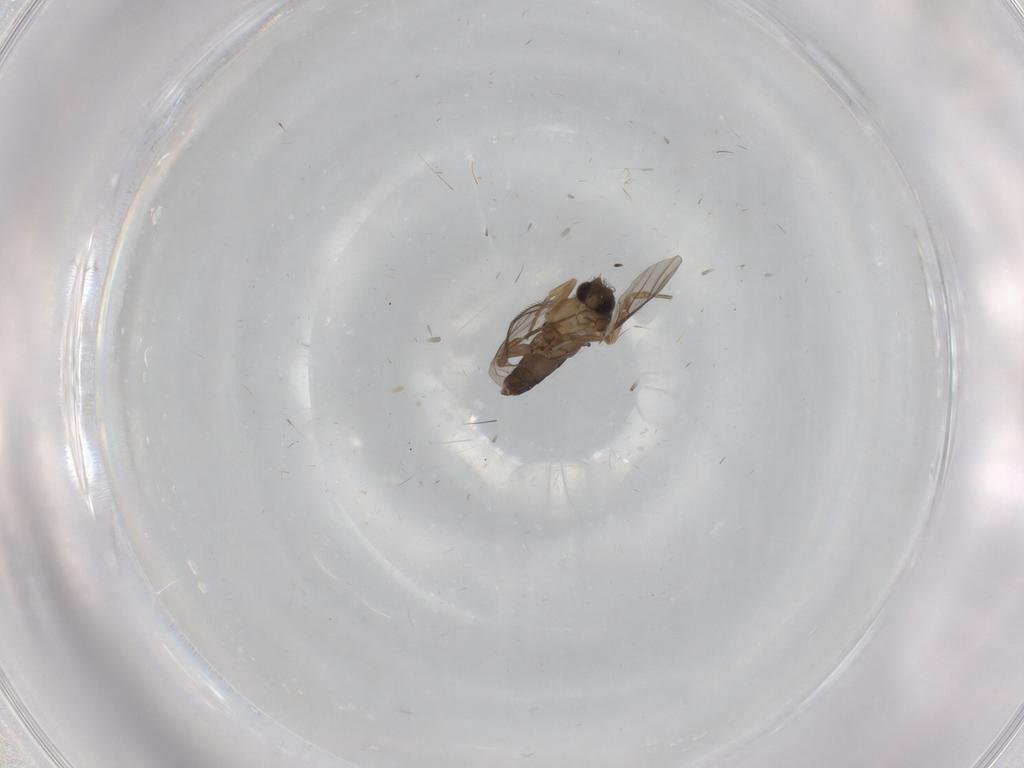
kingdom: Animalia
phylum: Arthropoda
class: Insecta
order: Diptera
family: Psychodidae
